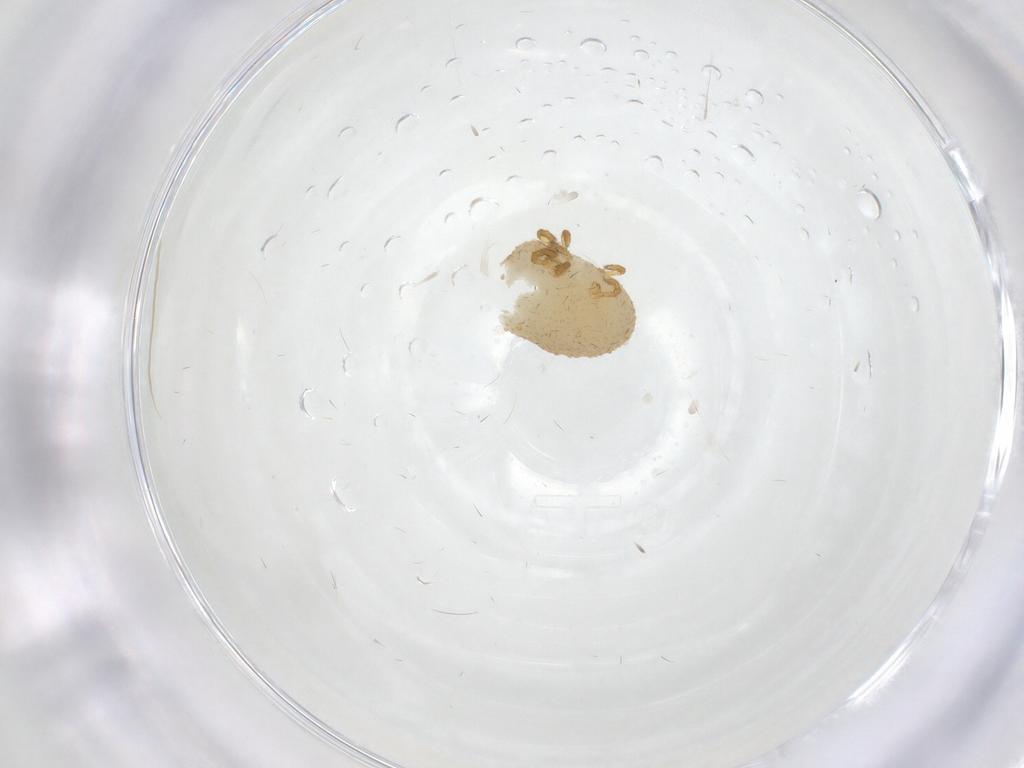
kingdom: Animalia
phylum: Arthropoda
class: Arachnida
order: Trombidiformes
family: Calyptostomatidae
